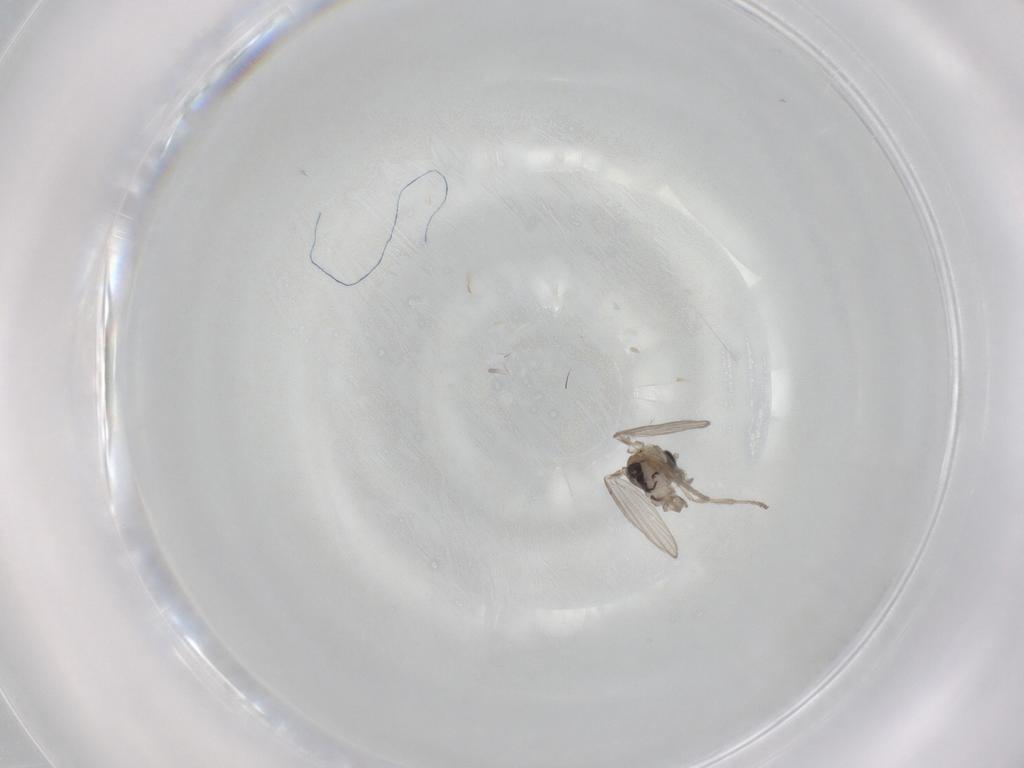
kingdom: Animalia
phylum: Arthropoda
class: Insecta
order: Diptera
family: Psychodidae
